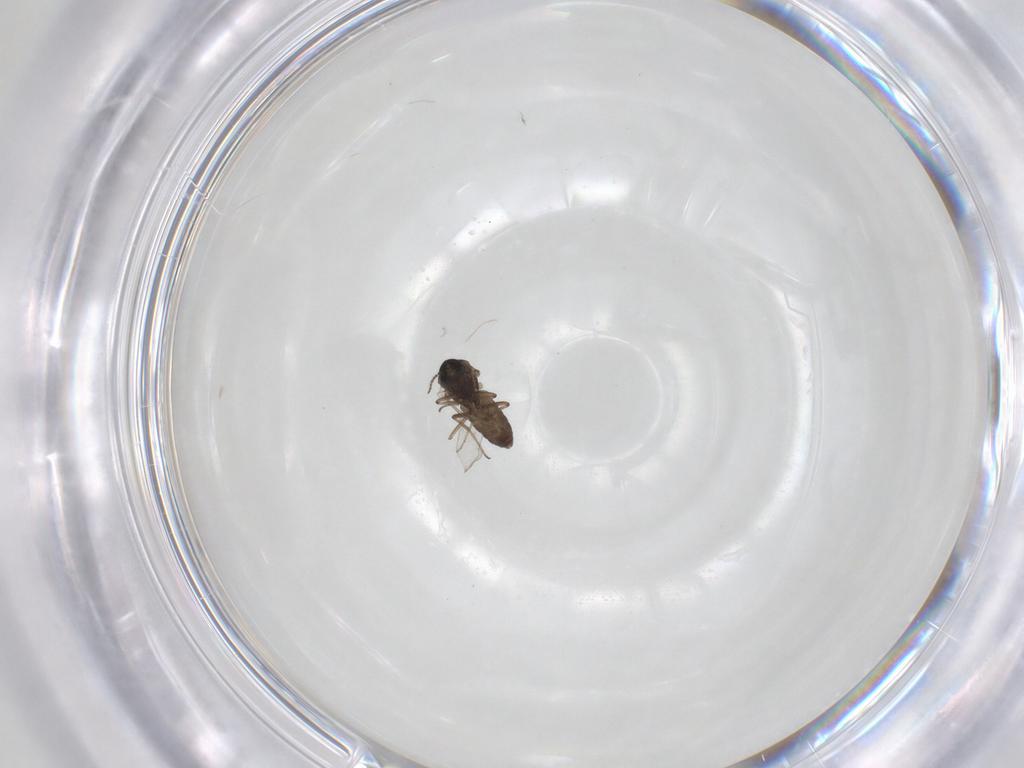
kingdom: Animalia
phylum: Arthropoda
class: Insecta
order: Diptera
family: Ceratopogonidae
